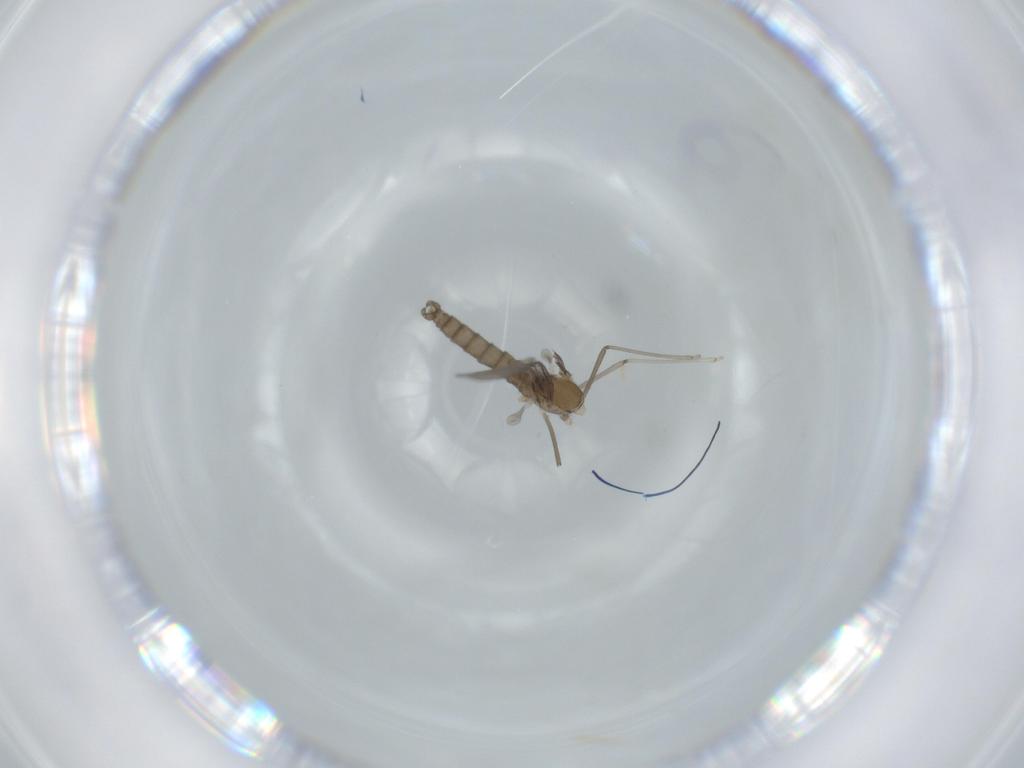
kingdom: Animalia
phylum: Arthropoda
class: Insecta
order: Diptera
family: Cecidomyiidae
